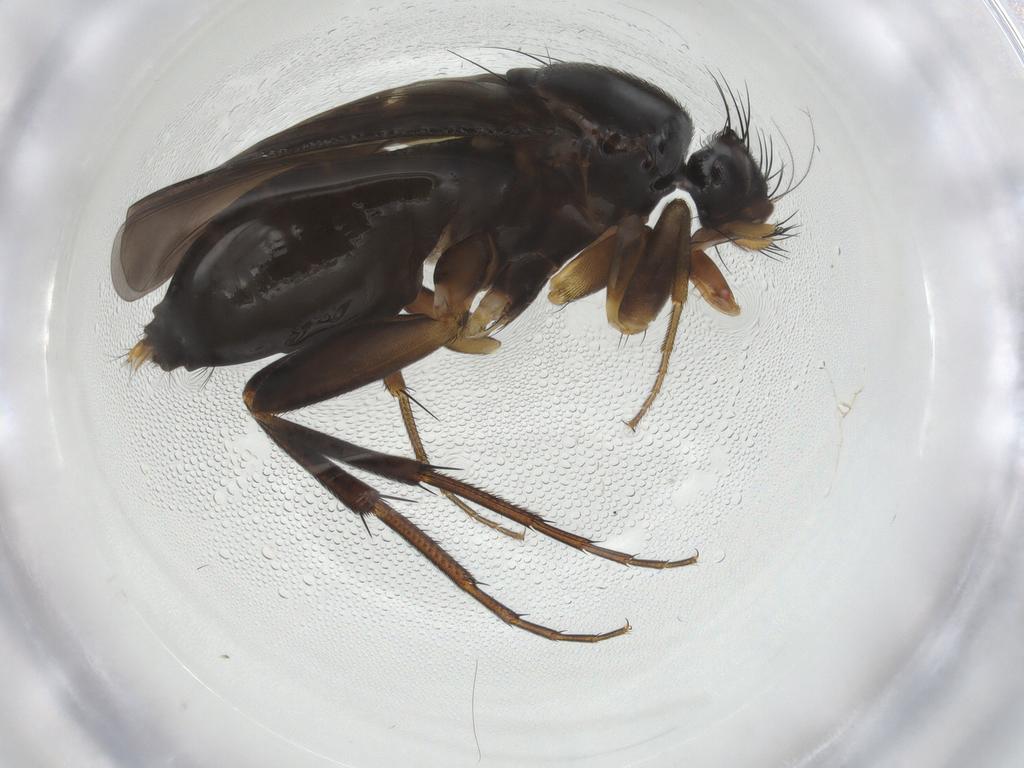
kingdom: Animalia
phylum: Arthropoda
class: Insecta
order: Diptera
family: Phoridae
